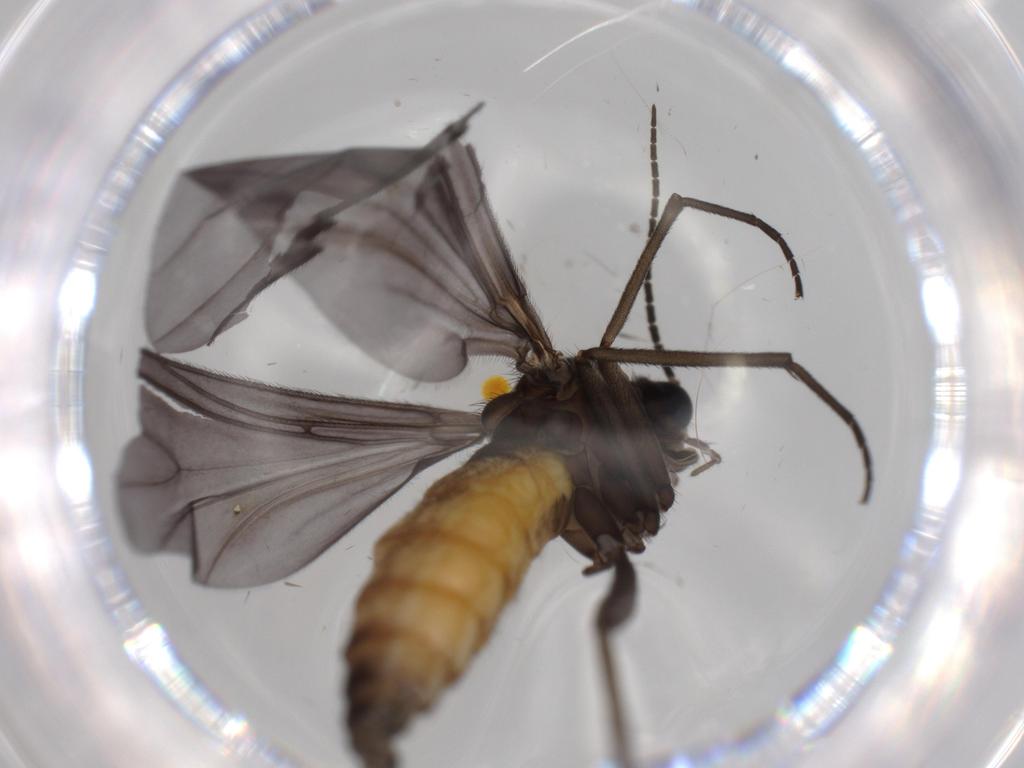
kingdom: Animalia
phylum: Arthropoda
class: Insecta
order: Diptera
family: Cecidomyiidae
